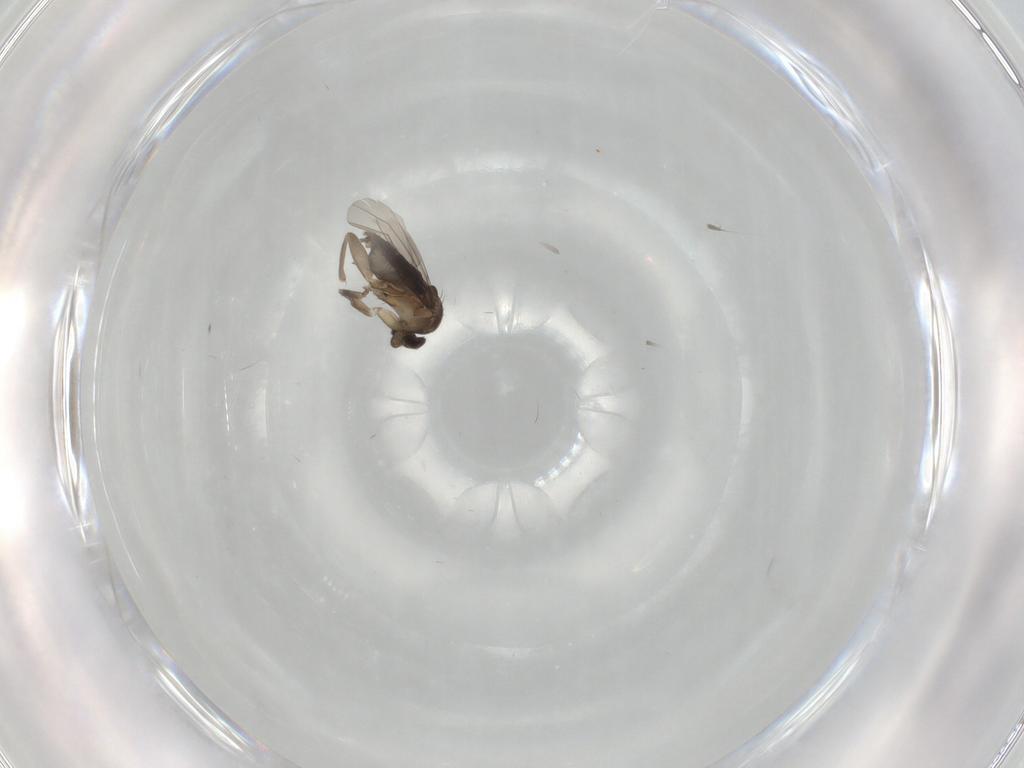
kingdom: Animalia
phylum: Arthropoda
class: Insecta
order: Diptera
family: Phoridae
